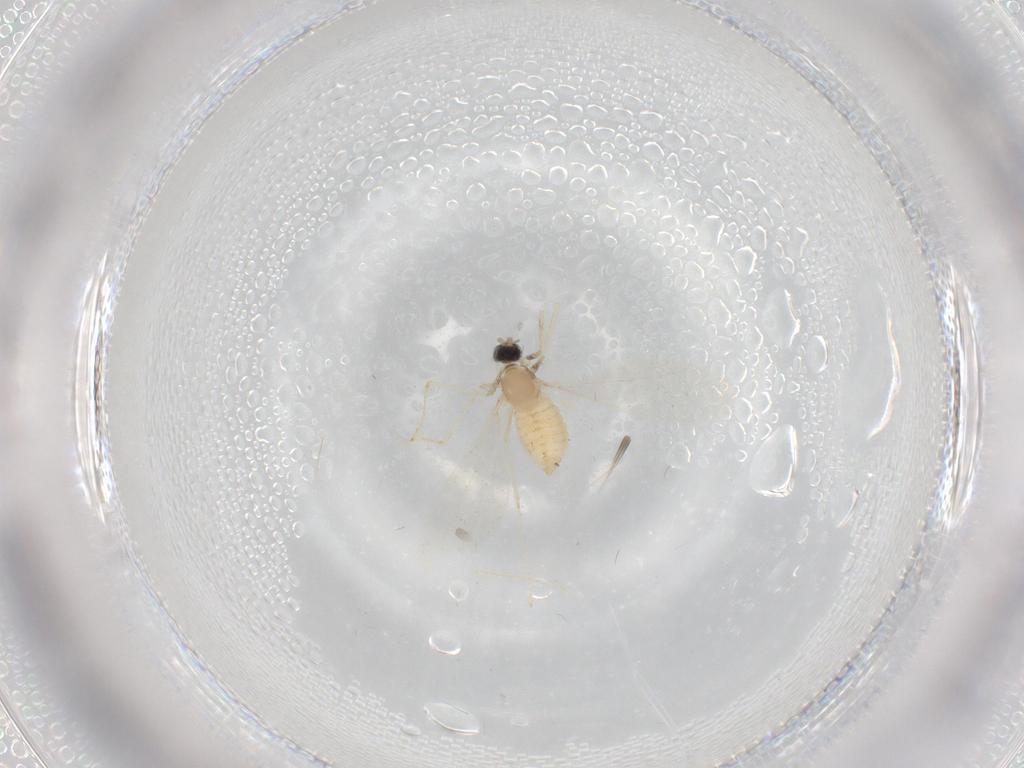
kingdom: Animalia
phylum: Arthropoda
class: Insecta
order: Diptera
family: Cecidomyiidae
